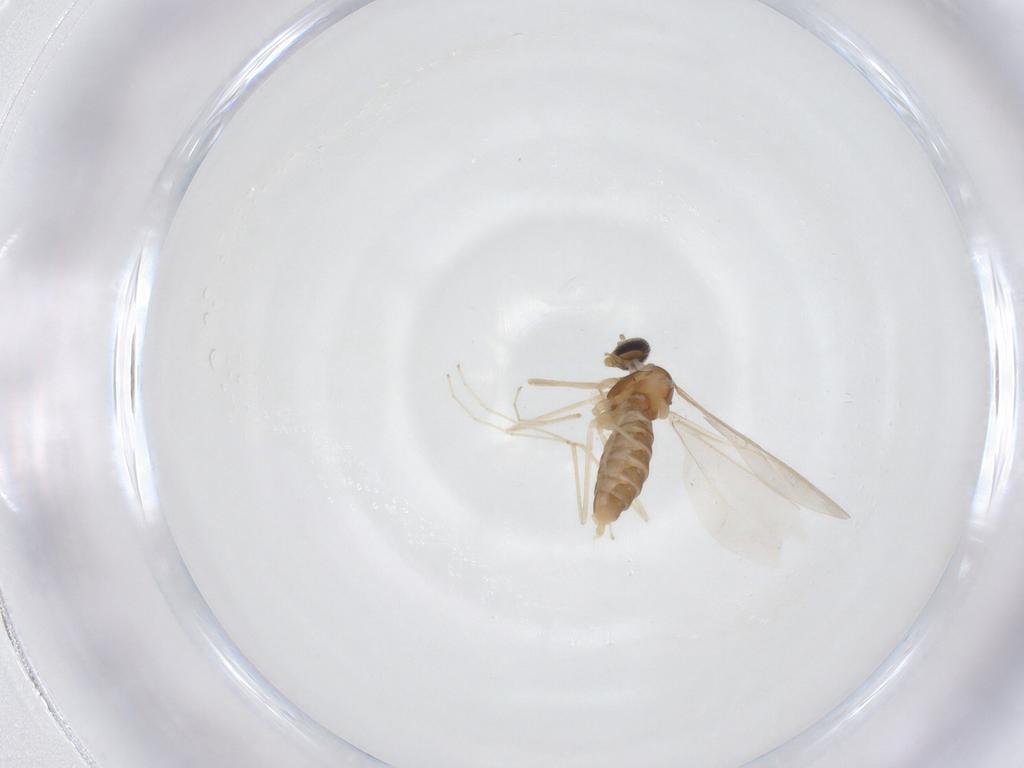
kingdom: Animalia
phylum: Arthropoda
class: Insecta
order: Diptera
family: Cecidomyiidae
